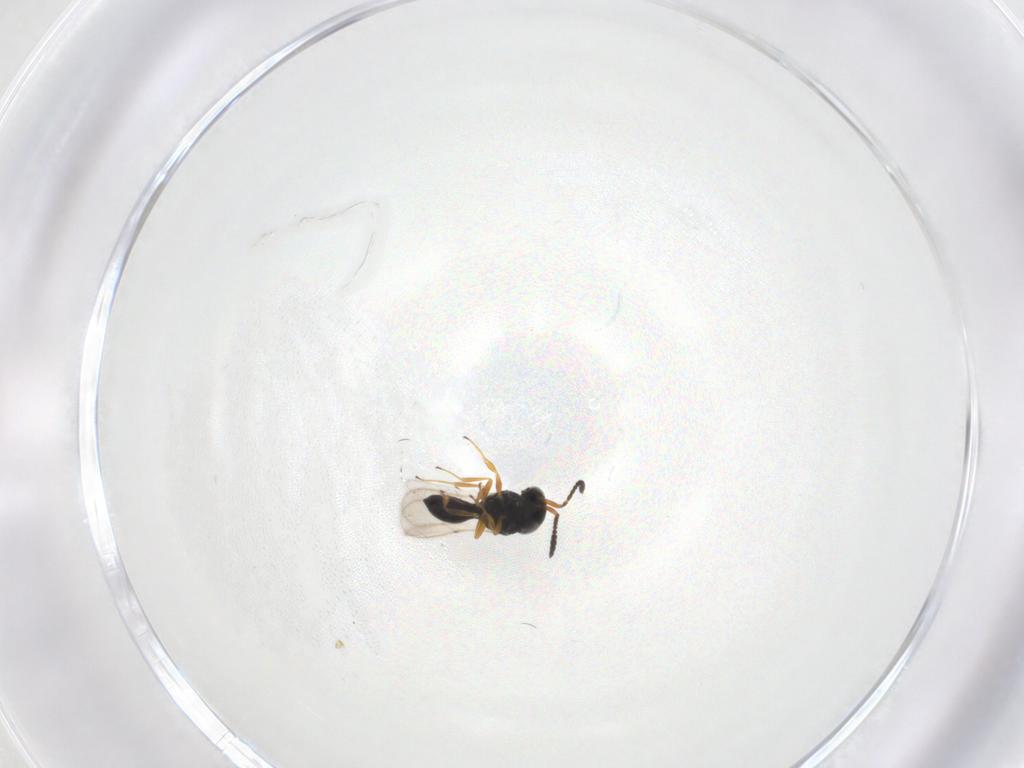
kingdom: Animalia
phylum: Arthropoda
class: Insecta
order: Hymenoptera
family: Scelionidae
